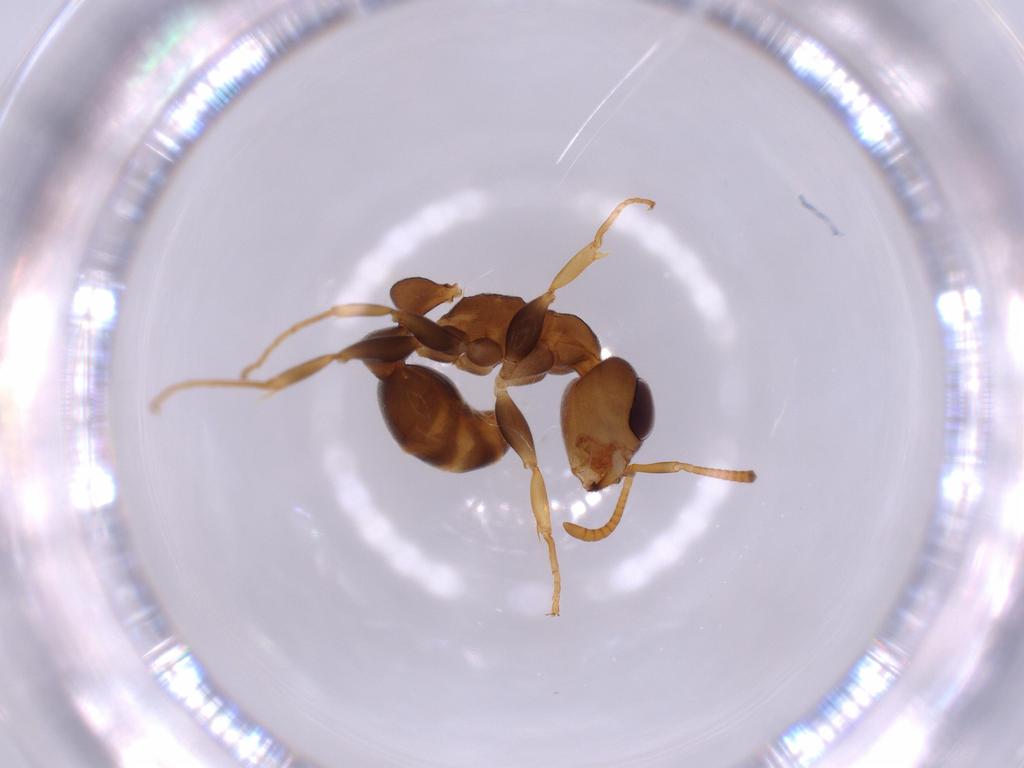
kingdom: Animalia
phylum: Arthropoda
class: Insecta
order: Hymenoptera
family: Formicidae
